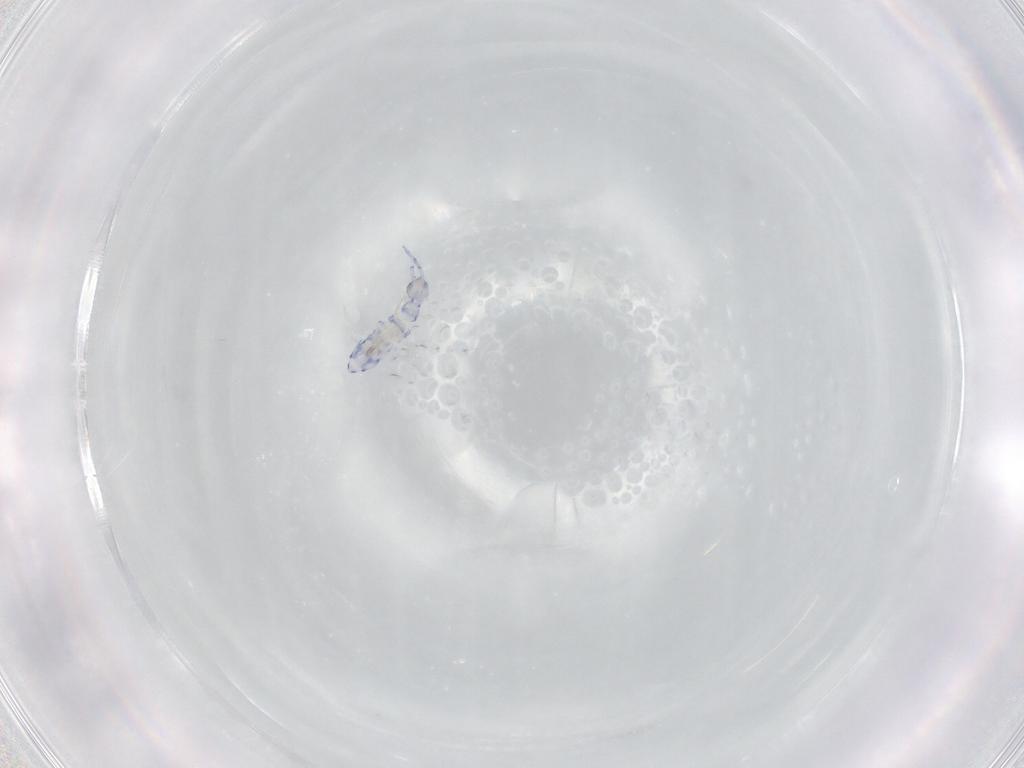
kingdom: Animalia
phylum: Arthropoda
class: Collembola
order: Entomobryomorpha
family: Entomobryidae
